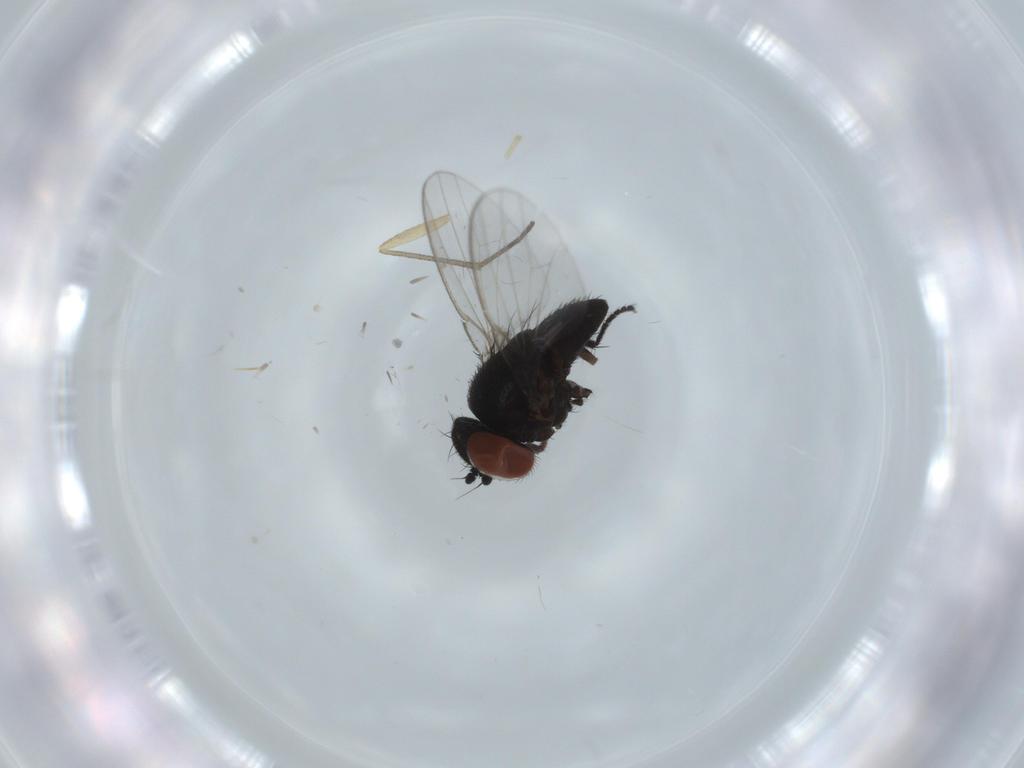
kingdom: Animalia
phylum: Arthropoda
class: Insecta
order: Diptera
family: Milichiidae
